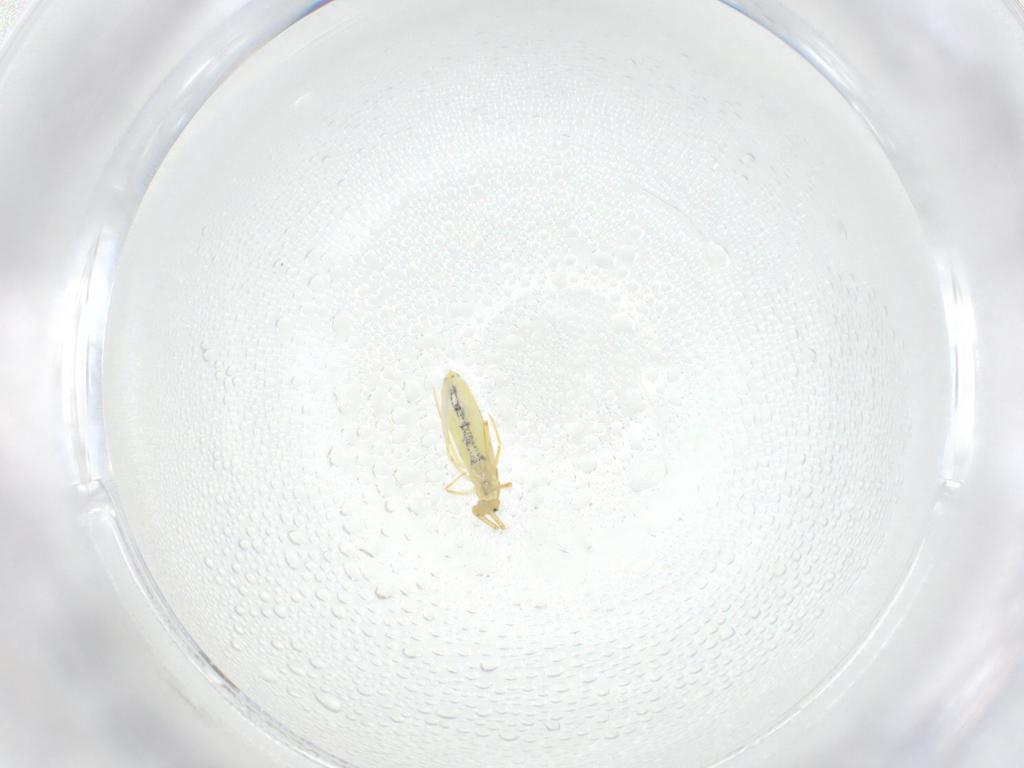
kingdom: Animalia
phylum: Arthropoda
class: Collembola
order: Entomobryomorpha
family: Entomobryidae
